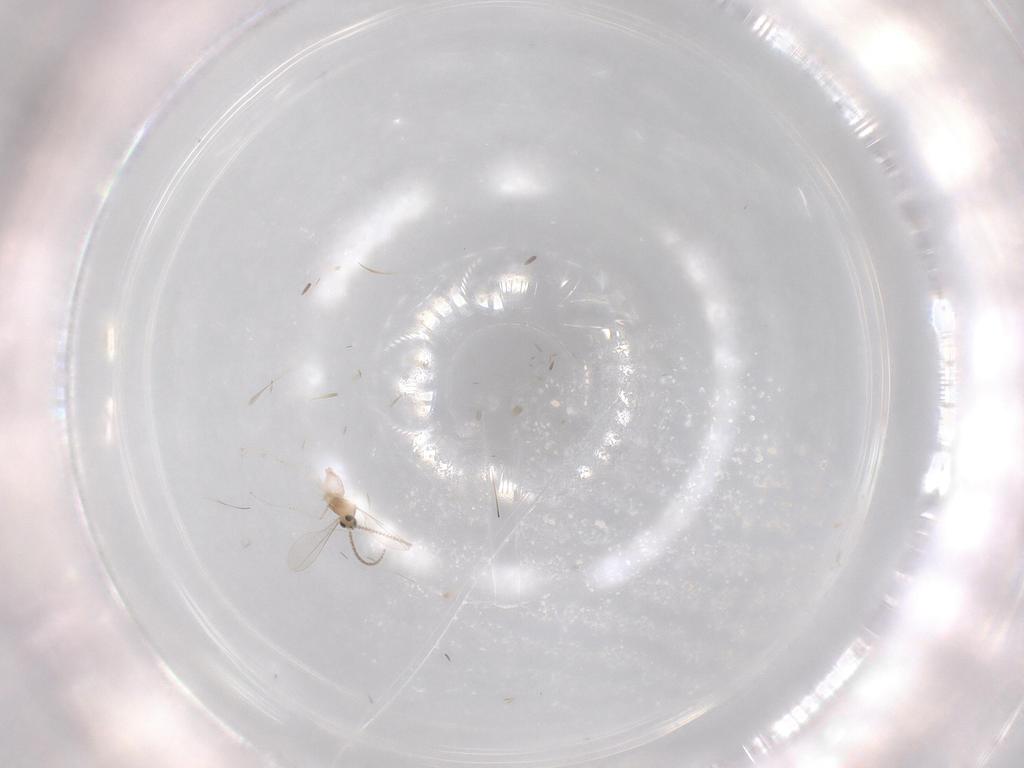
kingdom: Animalia
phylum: Arthropoda
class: Insecta
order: Diptera
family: Cecidomyiidae
